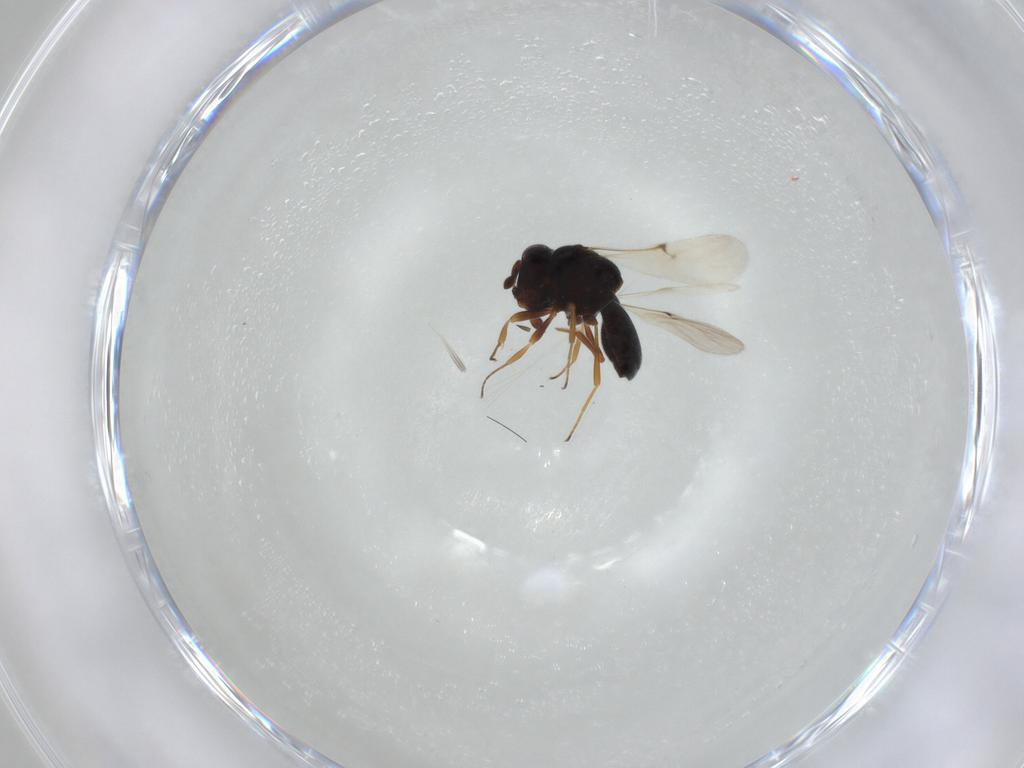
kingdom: Animalia
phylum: Arthropoda
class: Insecta
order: Hymenoptera
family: Scelionidae
